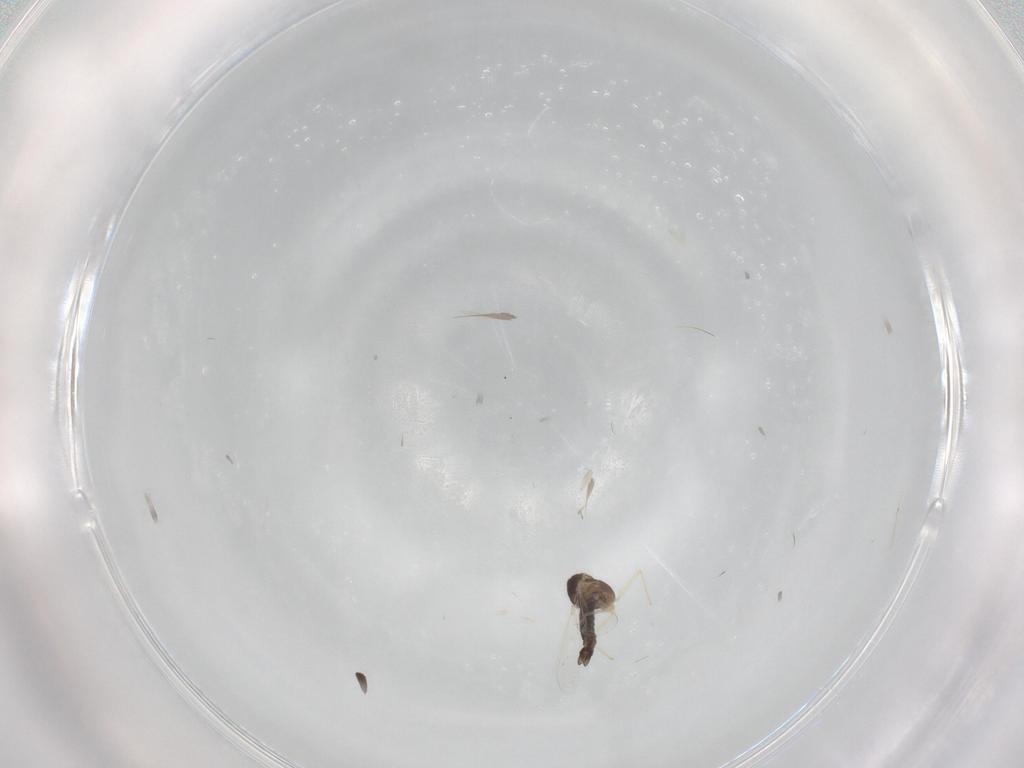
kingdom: Animalia
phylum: Arthropoda
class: Insecta
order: Diptera
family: Chironomidae
